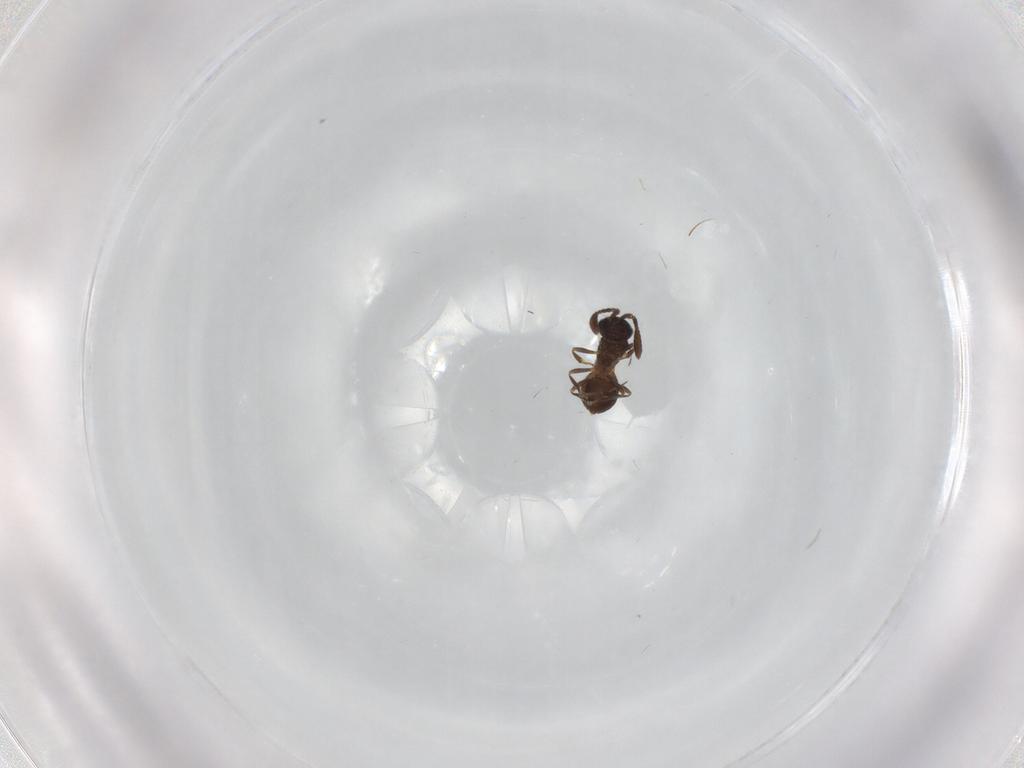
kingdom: Animalia
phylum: Arthropoda
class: Insecta
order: Hymenoptera
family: Scelionidae
